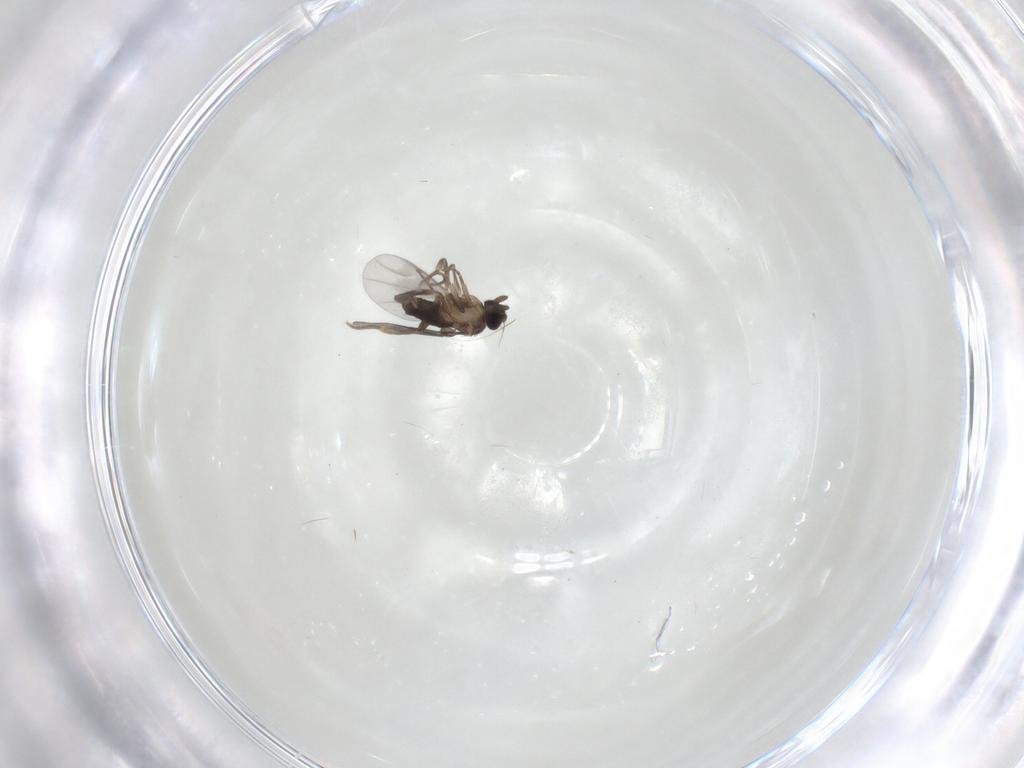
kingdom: Animalia
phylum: Arthropoda
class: Insecta
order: Diptera
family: Phoridae
